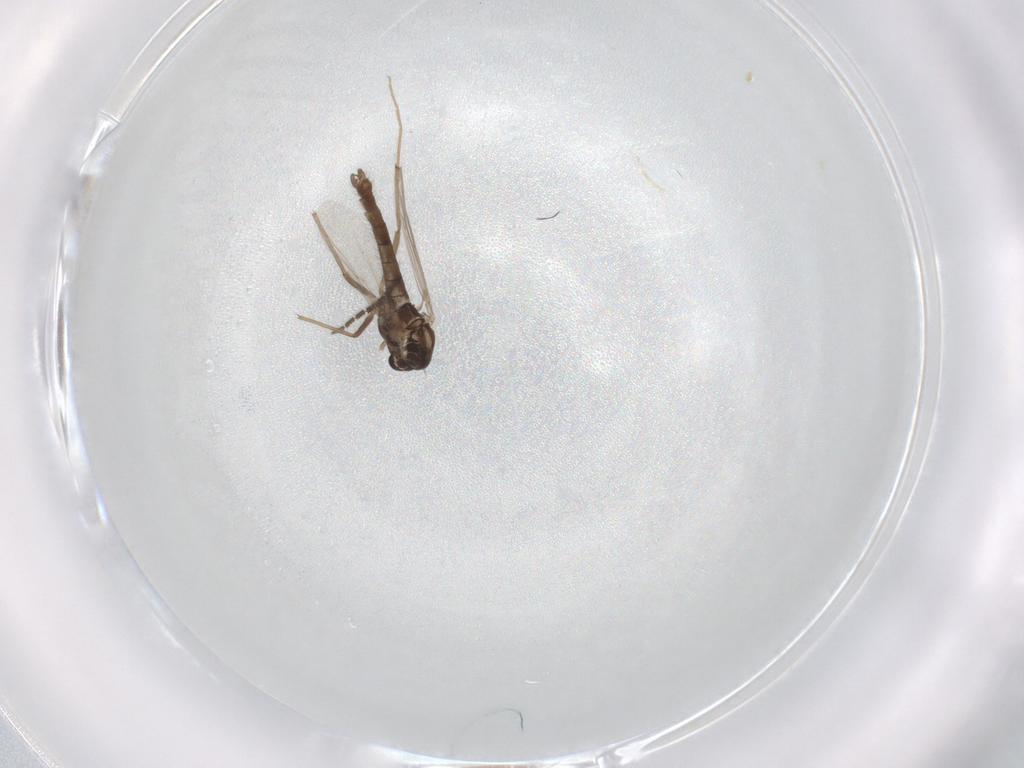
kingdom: Animalia
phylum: Arthropoda
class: Insecta
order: Diptera
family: Chironomidae
